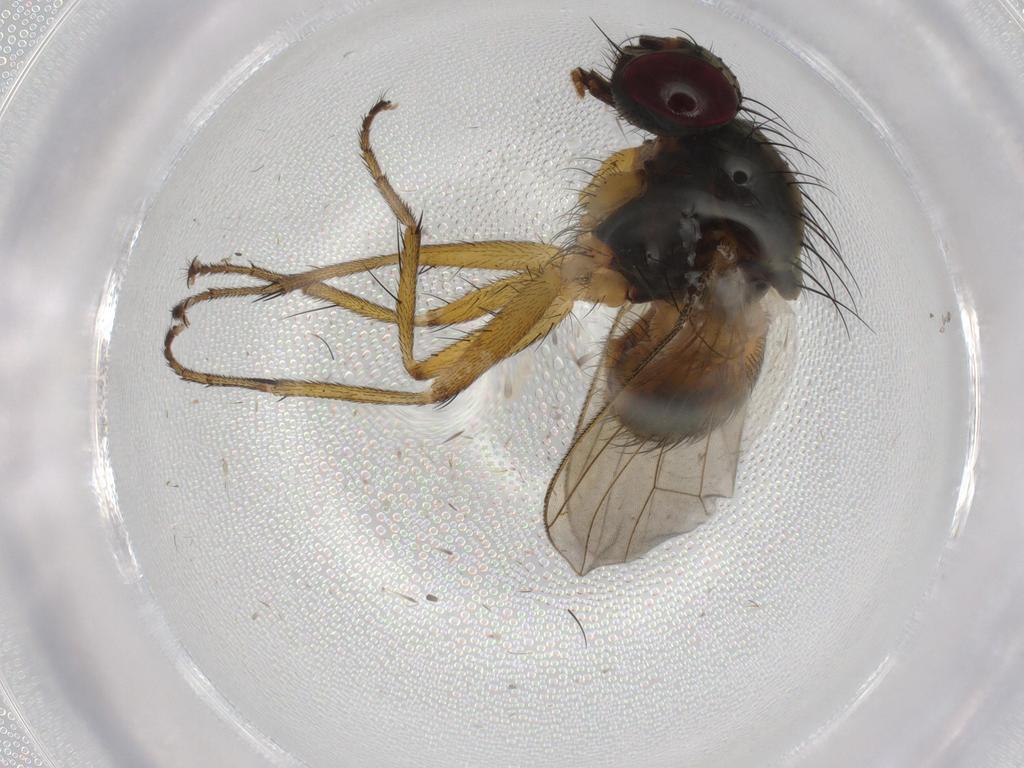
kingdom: Animalia
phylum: Arthropoda
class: Insecta
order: Diptera
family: Muscidae
